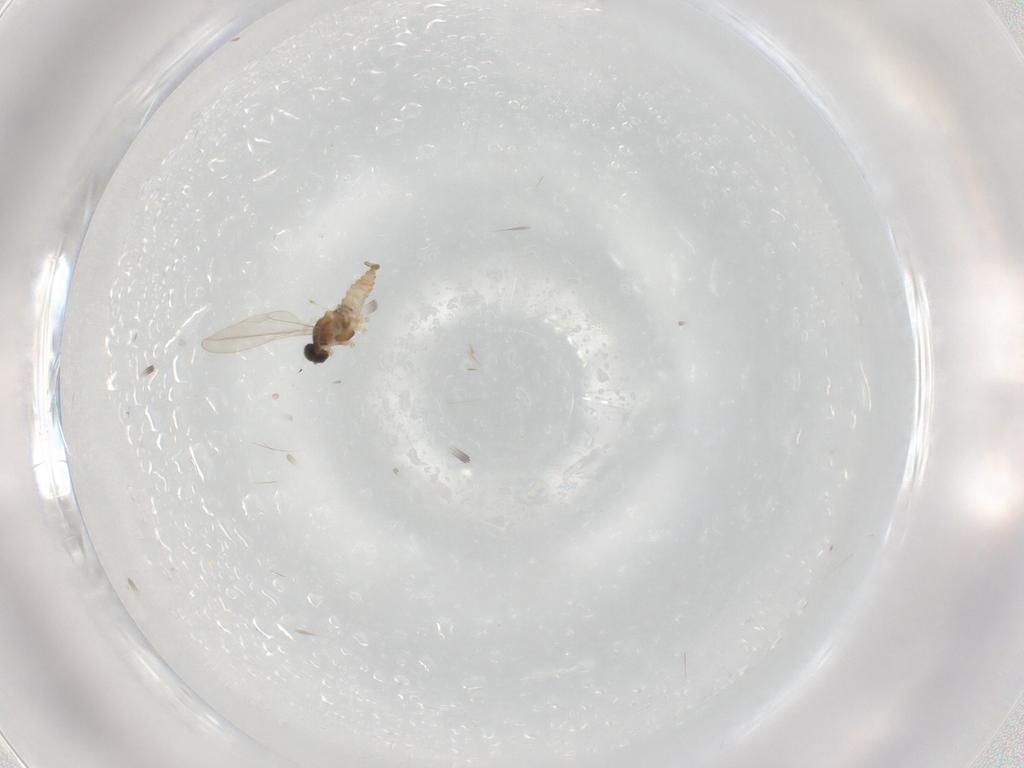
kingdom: Animalia
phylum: Arthropoda
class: Insecta
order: Diptera
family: Cecidomyiidae
